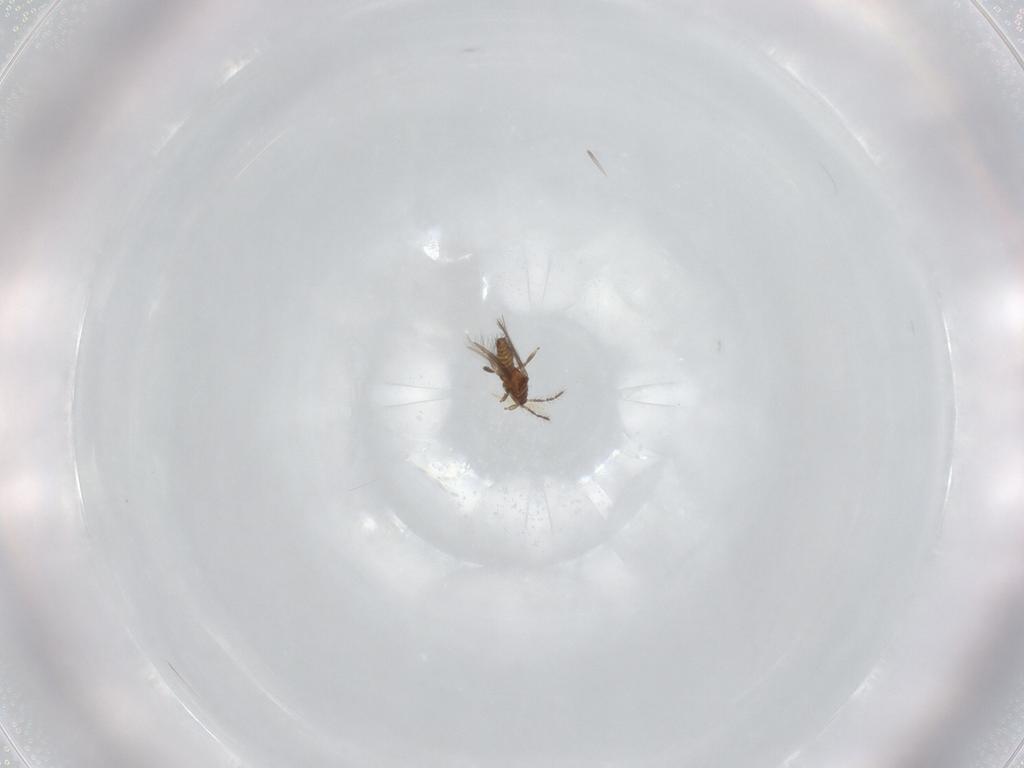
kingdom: Animalia
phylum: Arthropoda
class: Insecta
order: Thysanoptera
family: Thripidae
